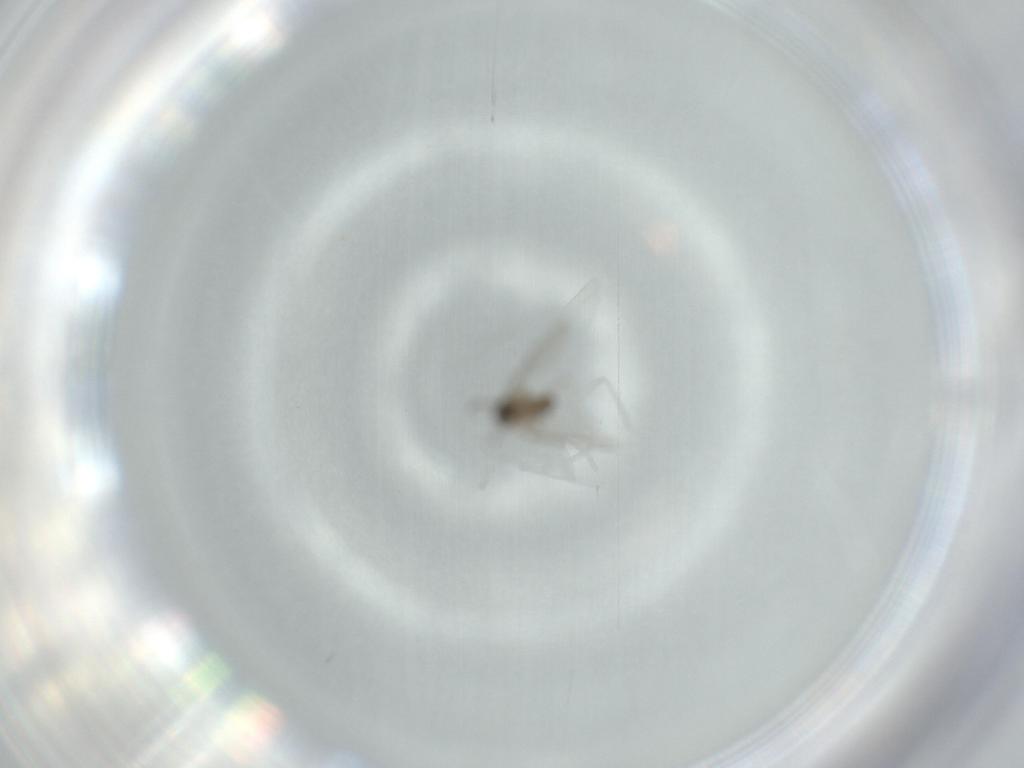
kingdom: Animalia
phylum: Arthropoda
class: Insecta
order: Diptera
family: Cecidomyiidae
